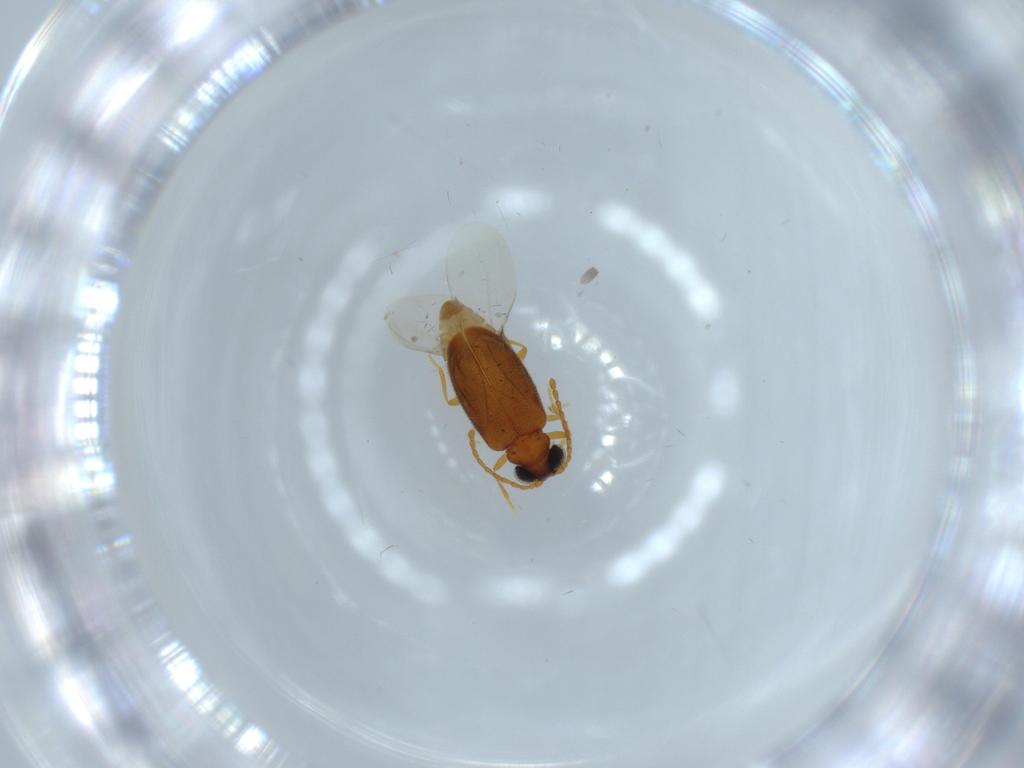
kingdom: Animalia
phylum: Arthropoda
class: Insecta
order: Coleoptera
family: Aderidae
